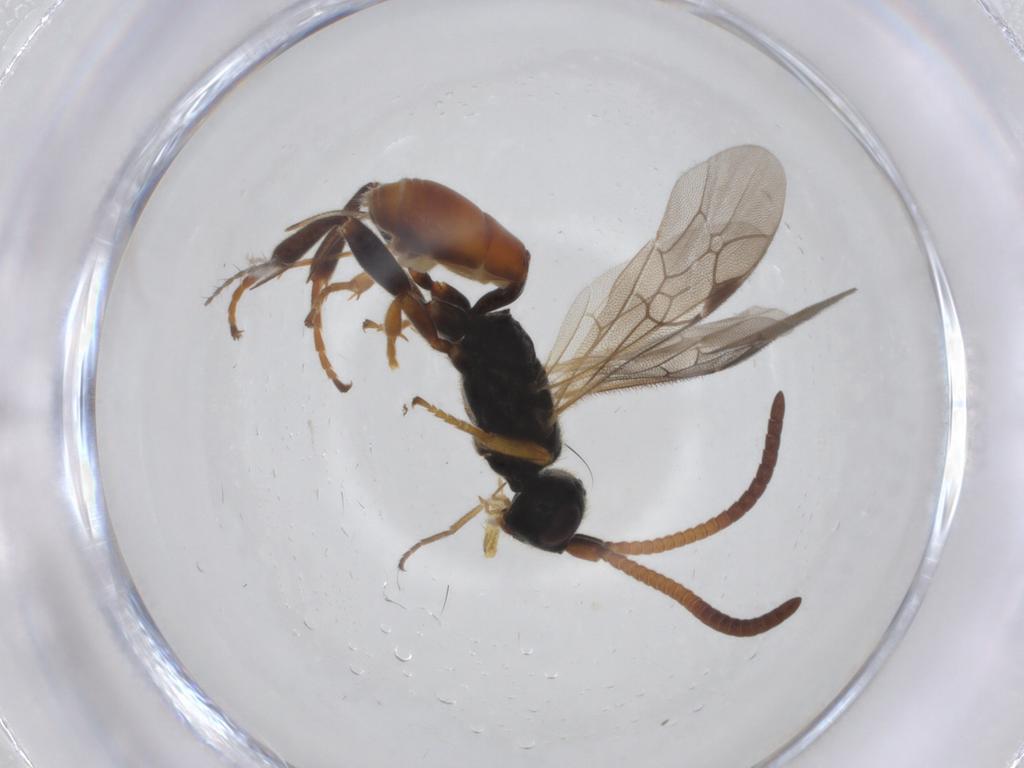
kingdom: Animalia
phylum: Arthropoda
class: Insecta
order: Hymenoptera
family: Ichneumonidae
